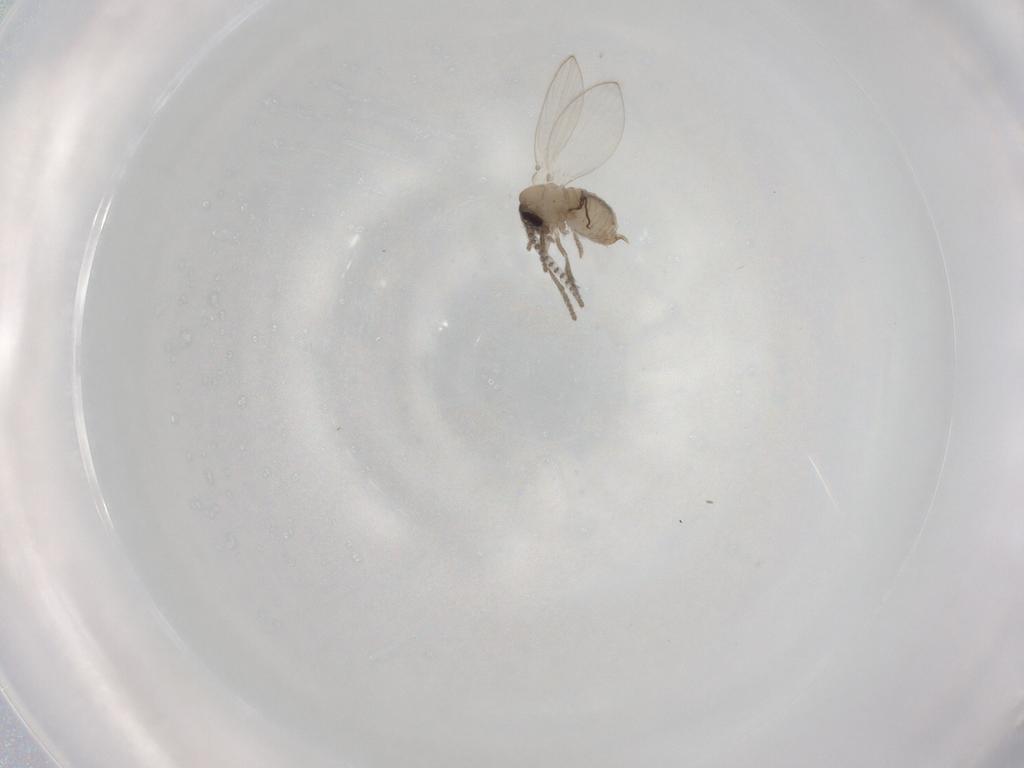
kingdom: Animalia
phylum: Arthropoda
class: Insecta
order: Diptera
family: Psychodidae
